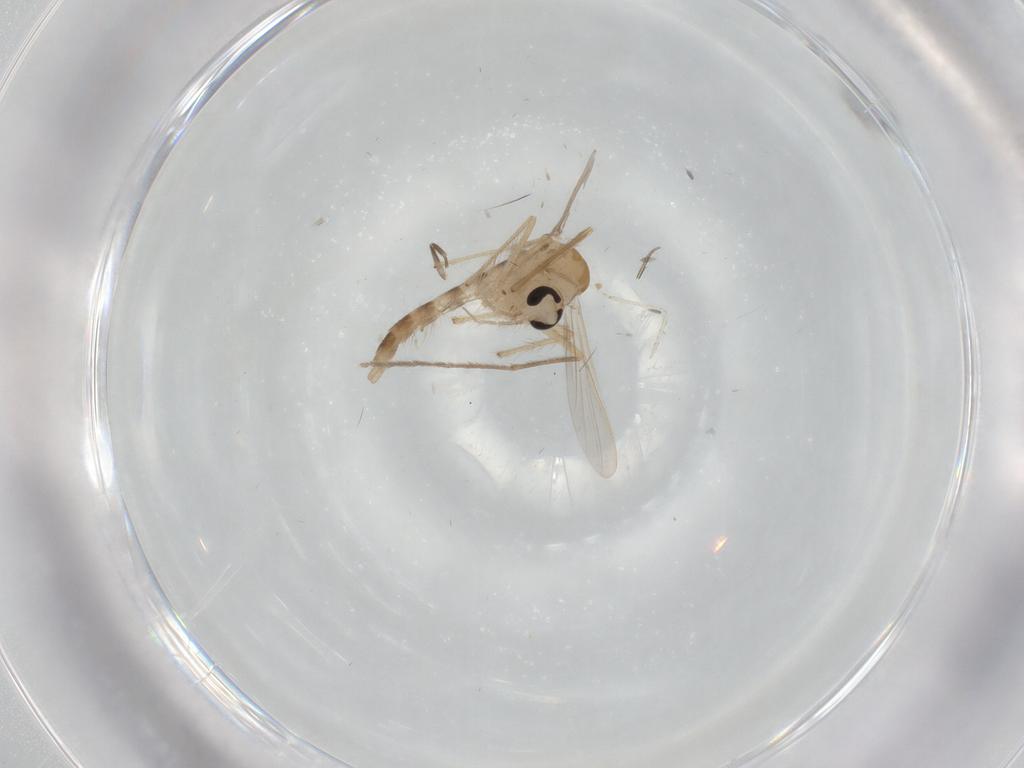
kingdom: Animalia
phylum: Arthropoda
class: Insecta
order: Diptera
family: Chironomidae
